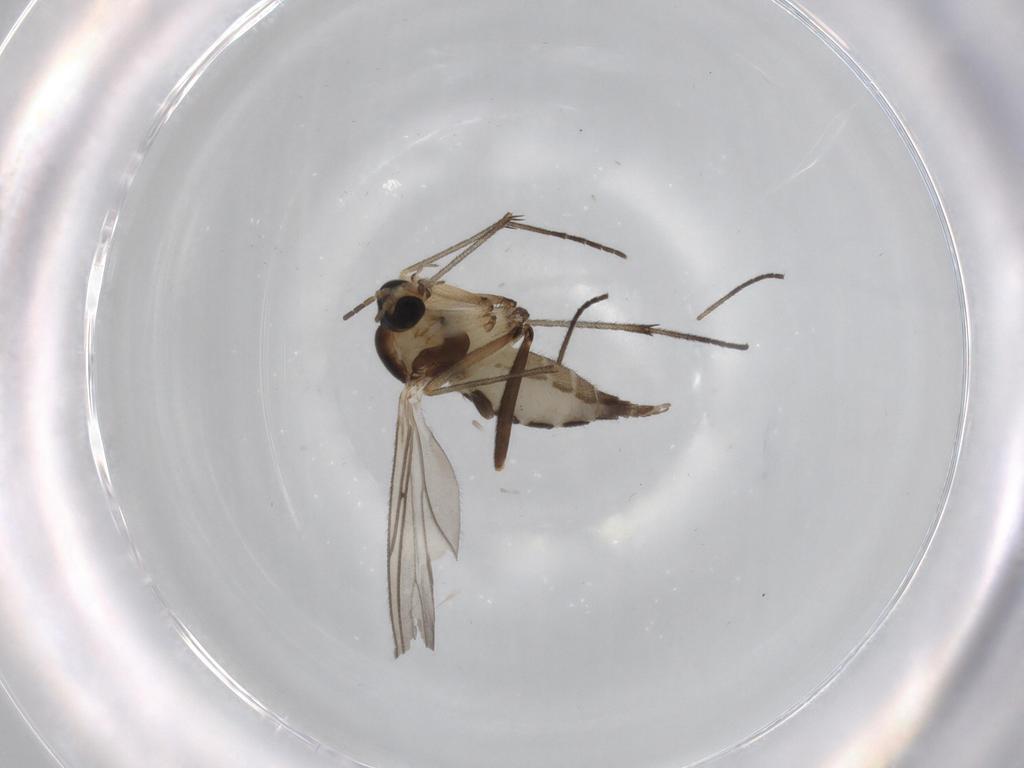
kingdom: Animalia
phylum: Arthropoda
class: Insecta
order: Diptera
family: Sciaridae
